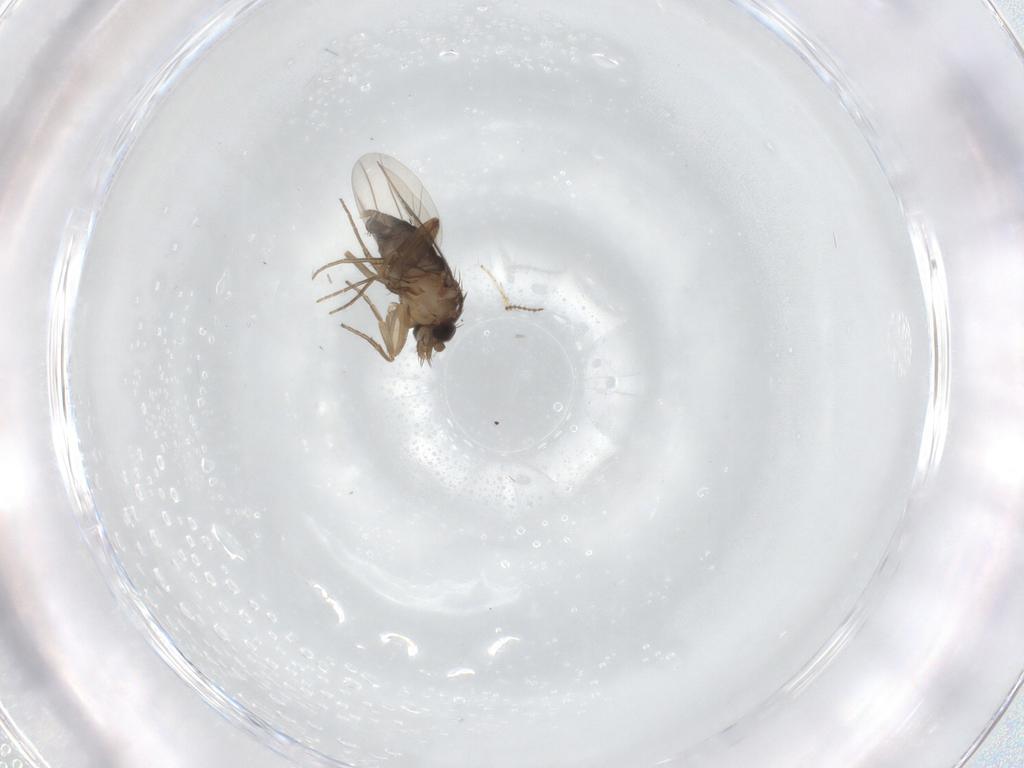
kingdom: Animalia
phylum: Arthropoda
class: Insecta
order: Diptera
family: Phoridae
